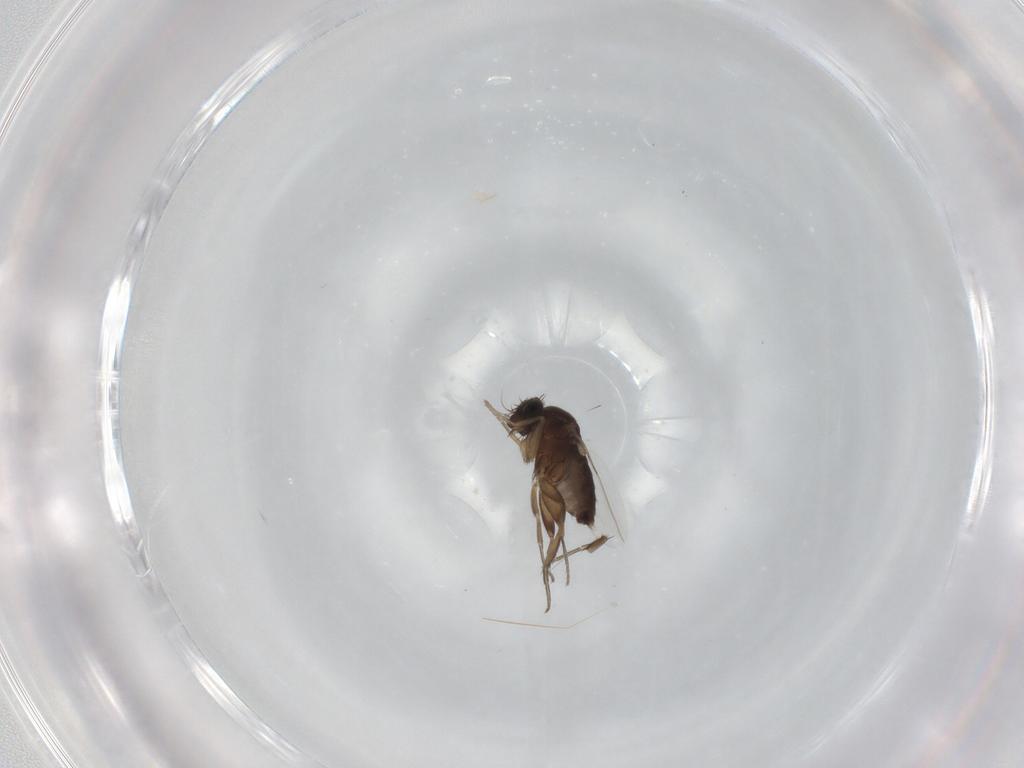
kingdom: Animalia
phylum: Arthropoda
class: Insecta
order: Diptera
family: Phoridae
